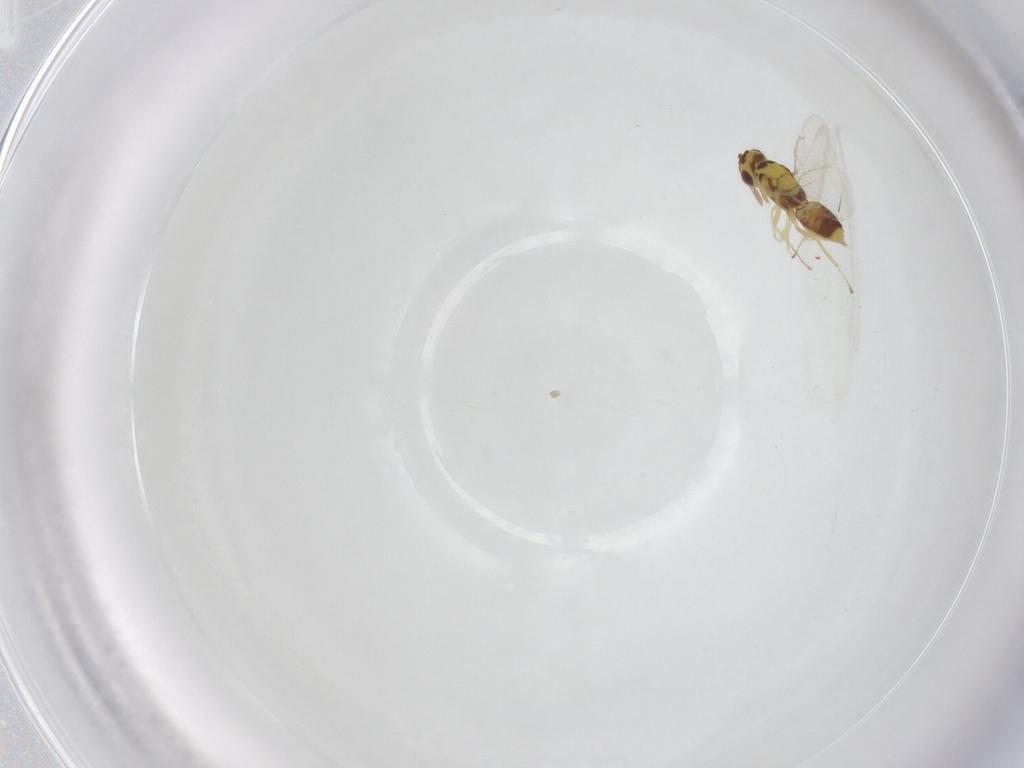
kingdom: Animalia
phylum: Arthropoda
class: Insecta
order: Hymenoptera
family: Eulophidae
